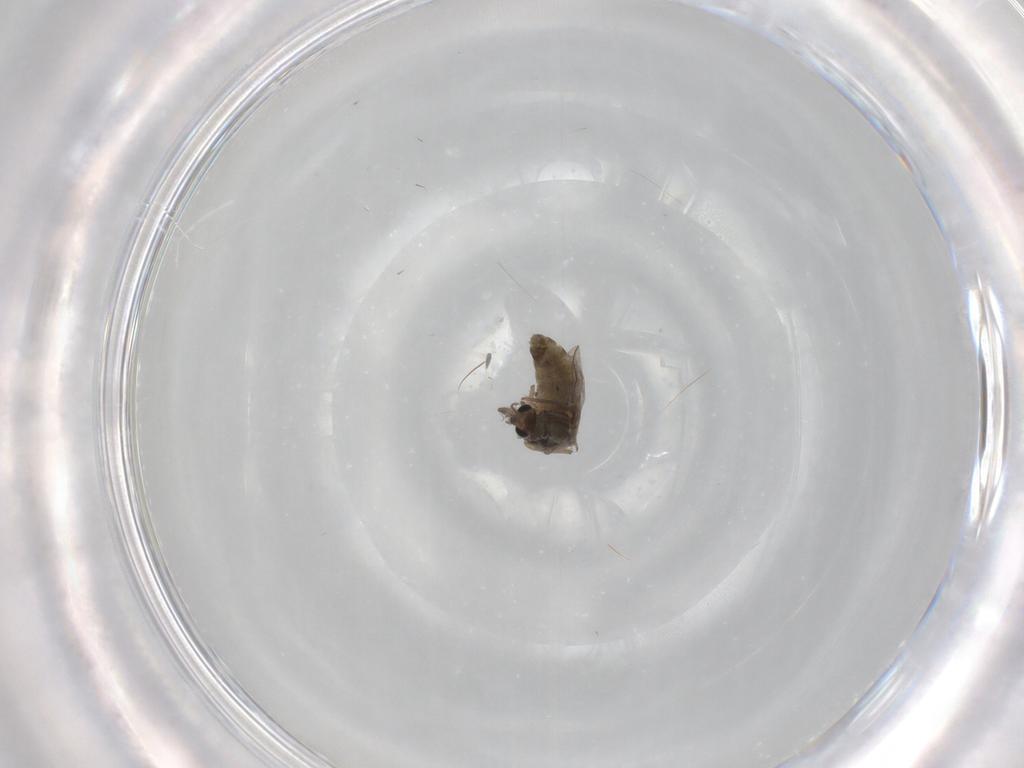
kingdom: Animalia
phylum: Arthropoda
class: Insecta
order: Diptera
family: Chironomidae
